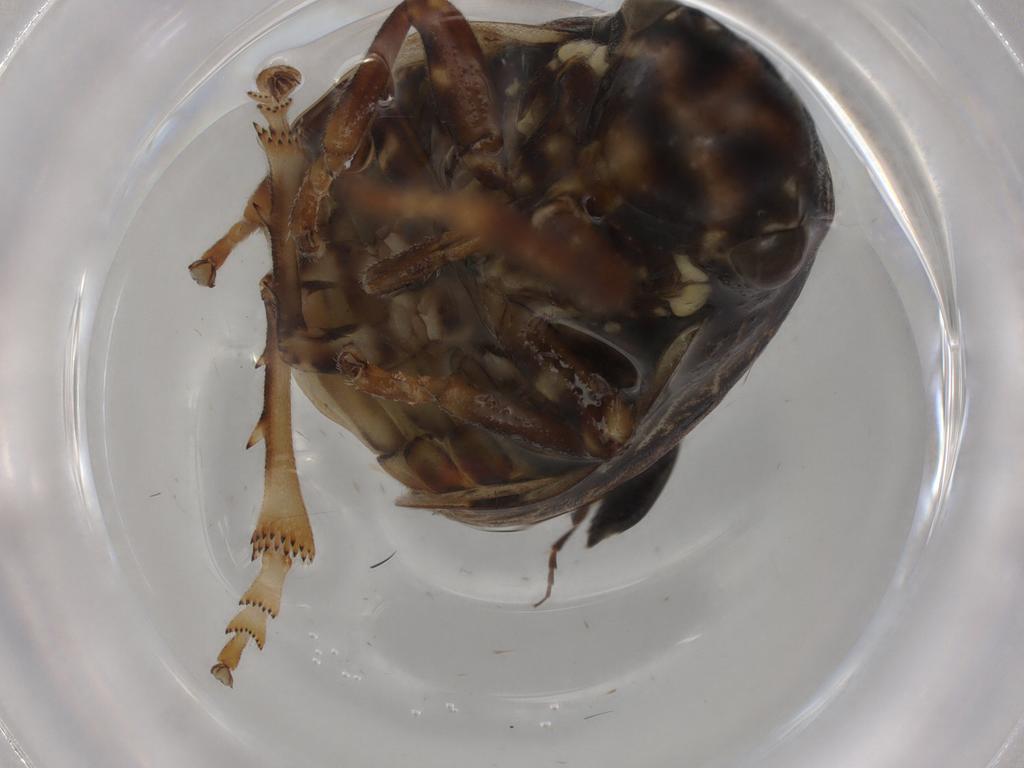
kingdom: Animalia
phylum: Arthropoda
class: Insecta
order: Hemiptera
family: Aphrophoridae
